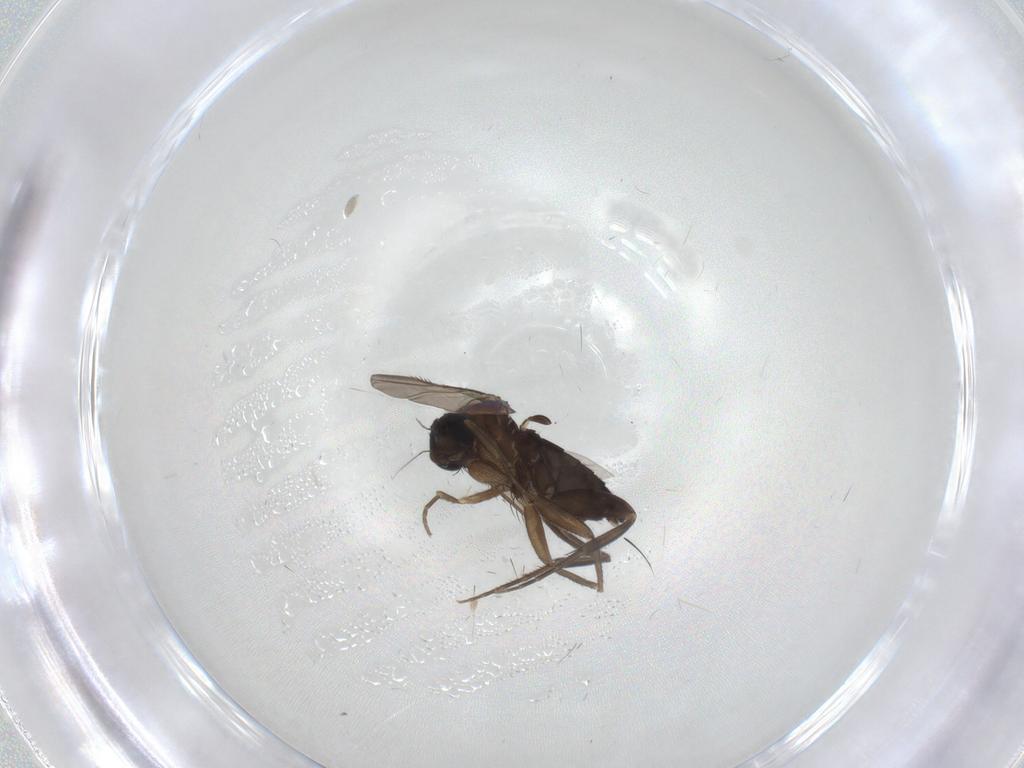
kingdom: Animalia
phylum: Arthropoda
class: Insecta
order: Diptera
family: Phoridae
